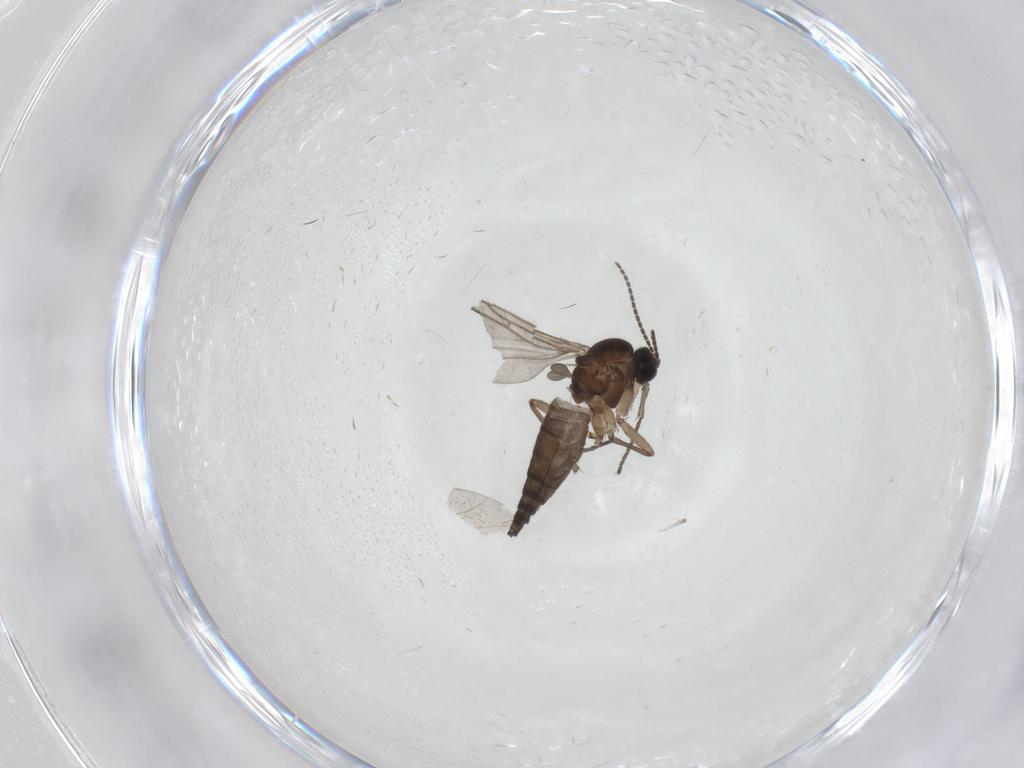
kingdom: Animalia
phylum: Arthropoda
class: Insecta
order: Diptera
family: Sciaridae
